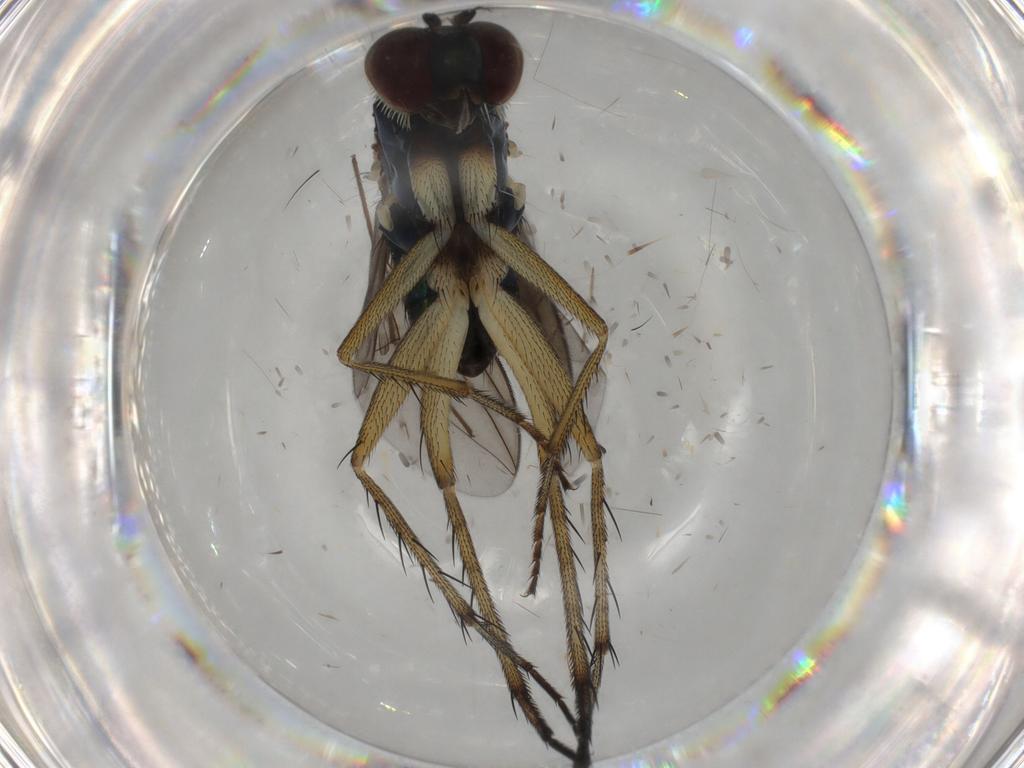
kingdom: Animalia
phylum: Arthropoda
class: Insecta
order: Diptera
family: Dolichopodidae
